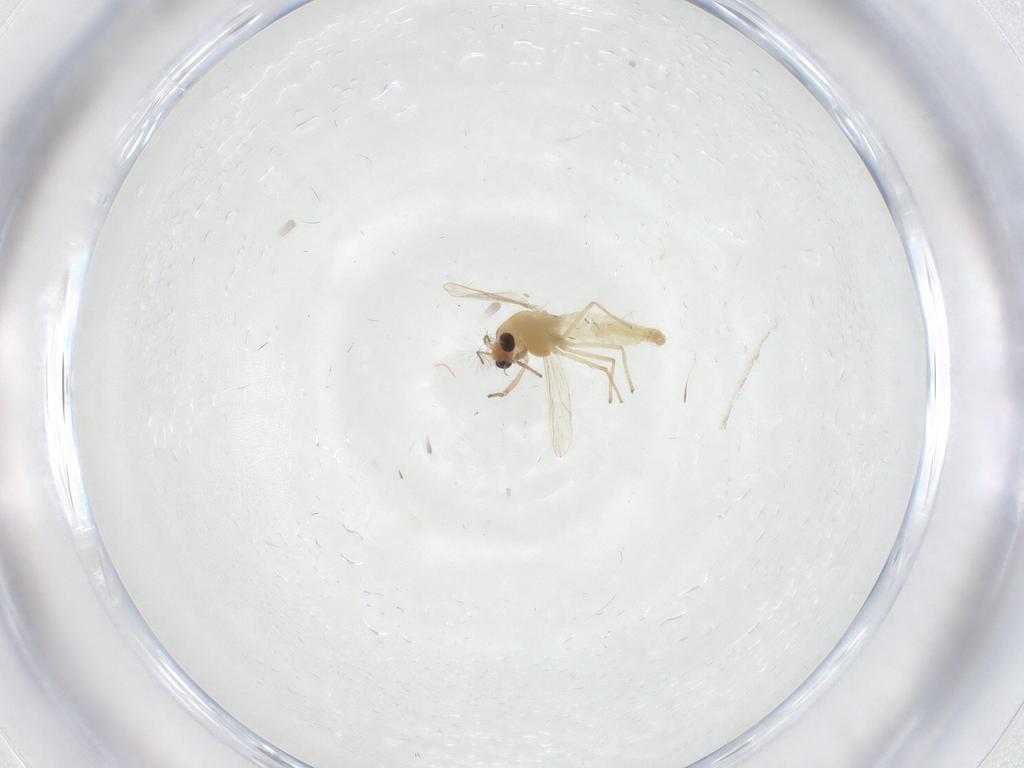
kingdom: Animalia
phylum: Arthropoda
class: Insecta
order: Diptera
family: Drosophilidae
